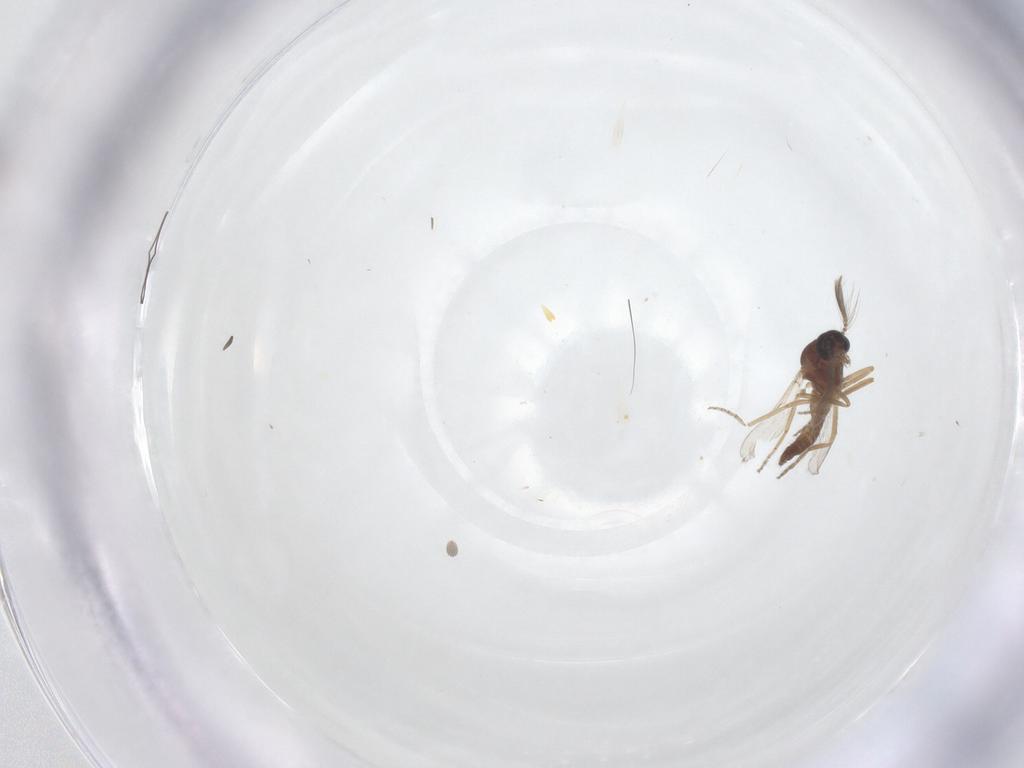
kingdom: Animalia
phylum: Arthropoda
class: Insecta
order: Diptera
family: Ceratopogonidae
